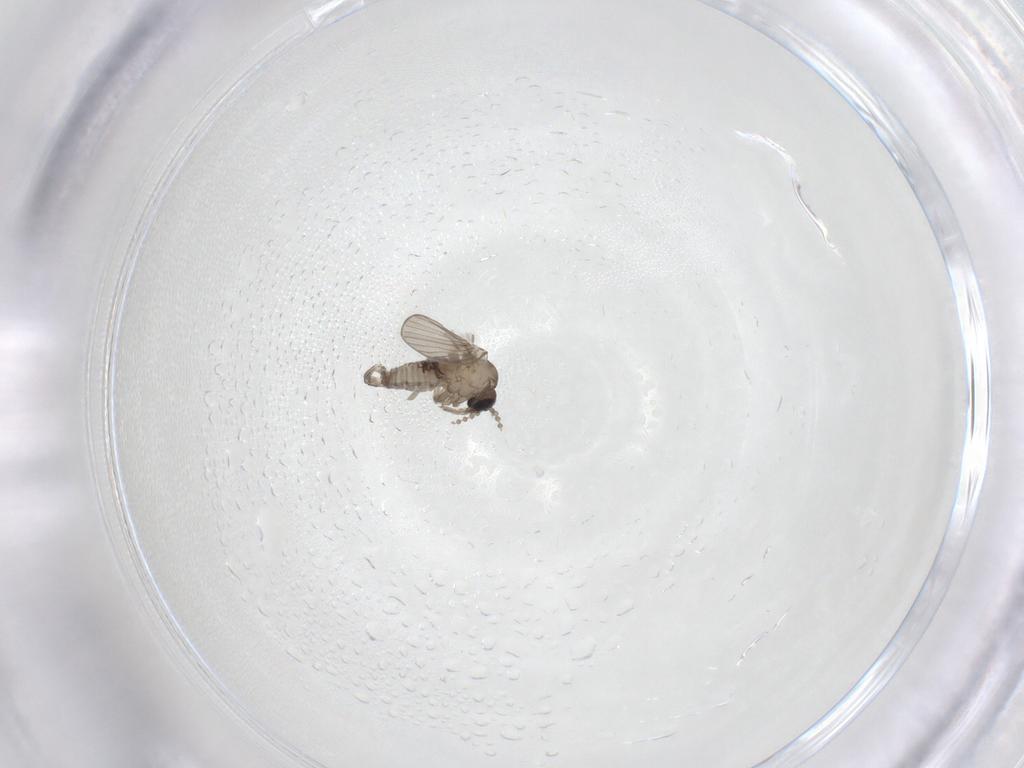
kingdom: Animalia
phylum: Arthropoda
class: Insecta
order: Diptera
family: Psychodidae
